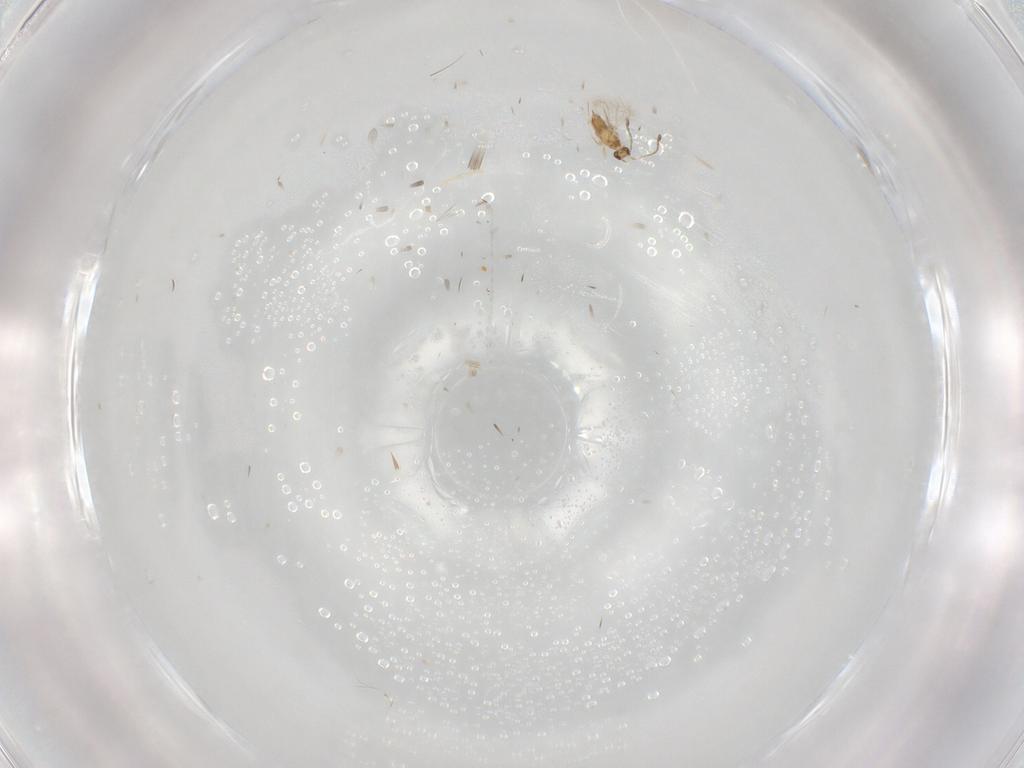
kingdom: Animalia
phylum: Arthropoda
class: Insecta
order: Hymenoptera
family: Mymaridae
